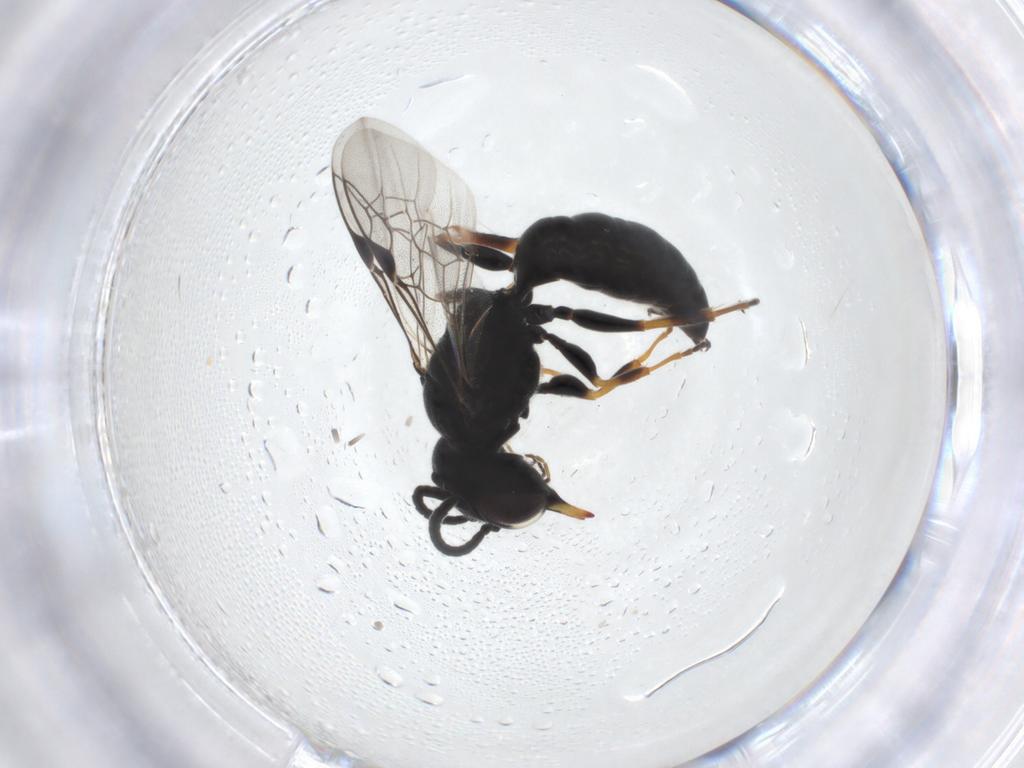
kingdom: Animalia
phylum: Arthropoda
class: Insecta
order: Hymenoptera
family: Pemphredonidae
